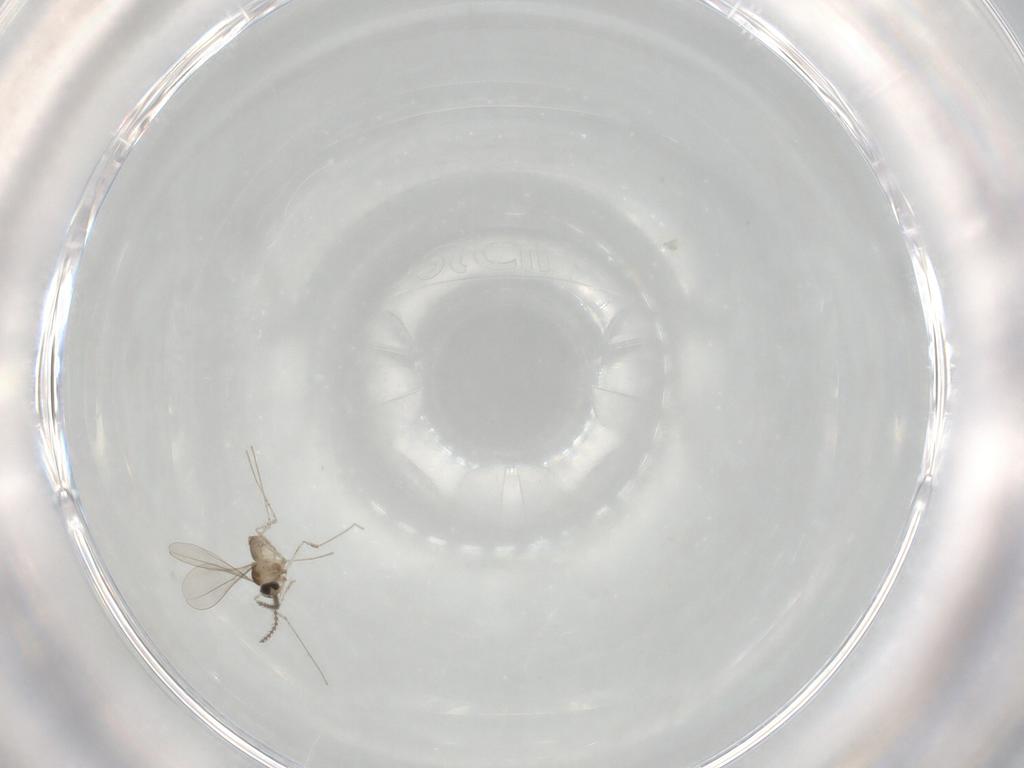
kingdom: Animalia
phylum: Arthropoda
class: Insecta
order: Diptera
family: Cecidomyiidae
